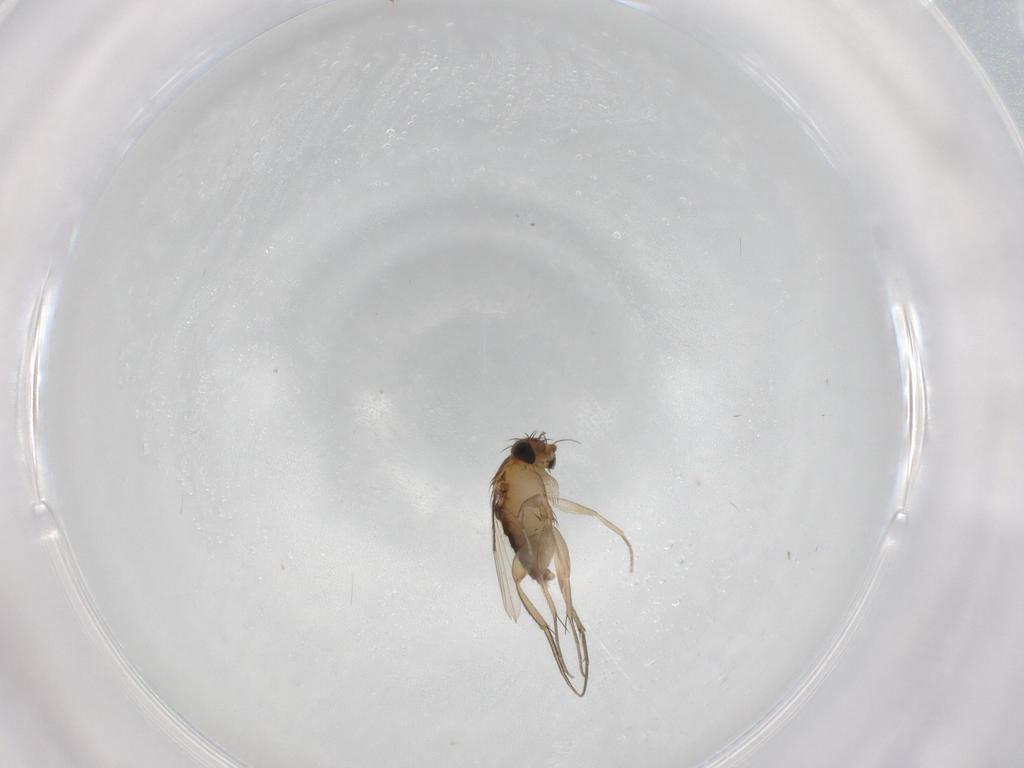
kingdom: Animalia
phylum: Arthropoda
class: Insecta
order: Diptera
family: Phoridae
